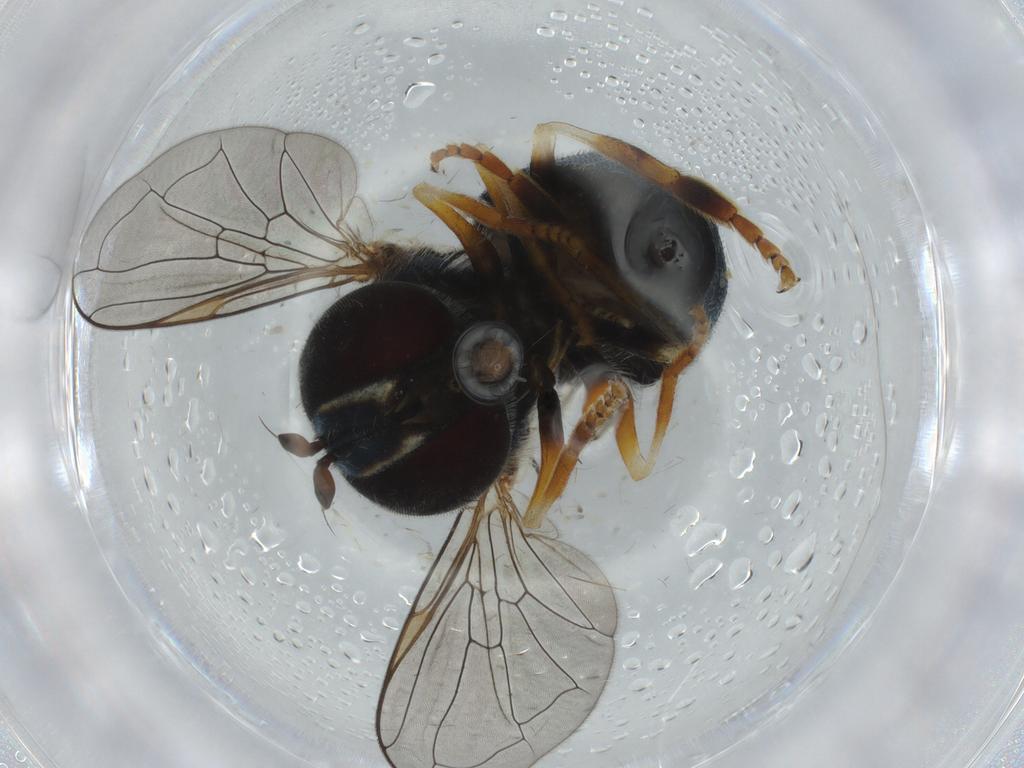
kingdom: Animalia
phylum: Arthropoda
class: Insecta
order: Diptera
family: Syrphidae
